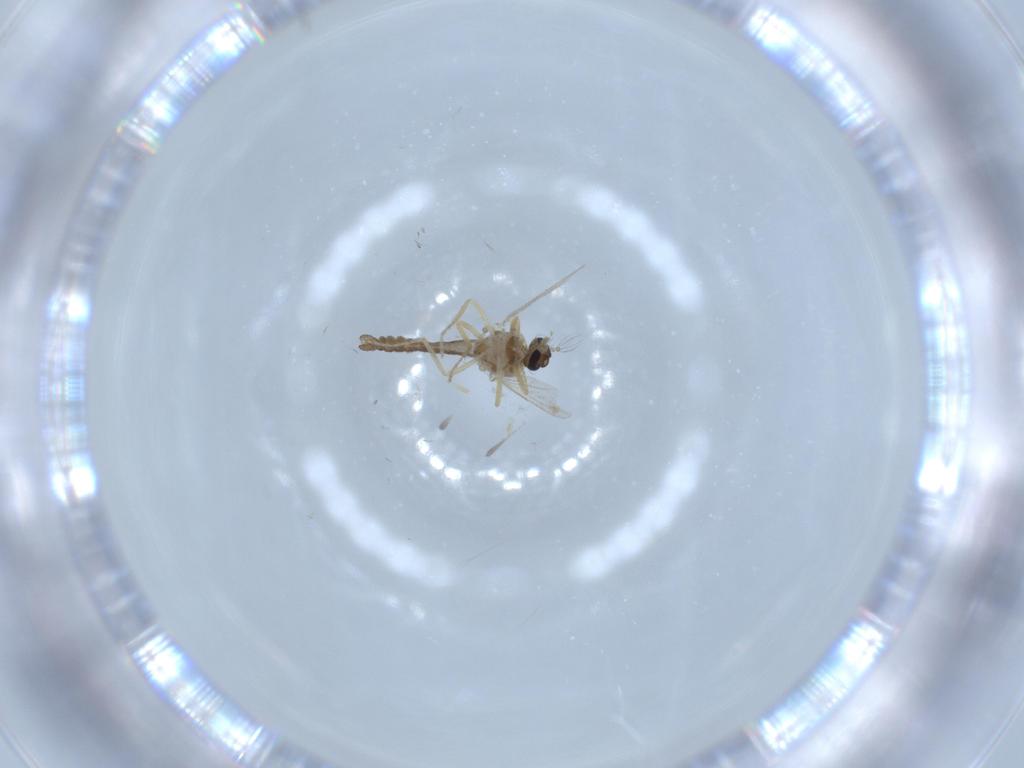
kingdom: Animalia
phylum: Arthropoda
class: Insecta
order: Diptera
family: Ceratopogonidae
